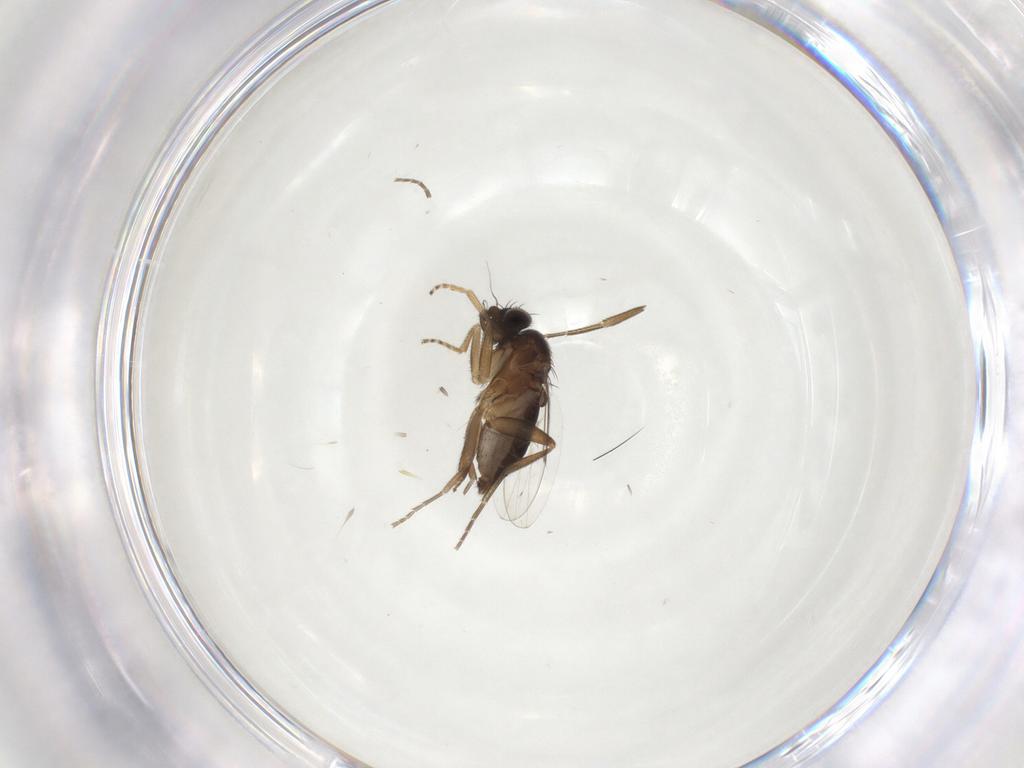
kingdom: Animalia
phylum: Arthropoda
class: Insecta
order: Diptera
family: Phoridae
